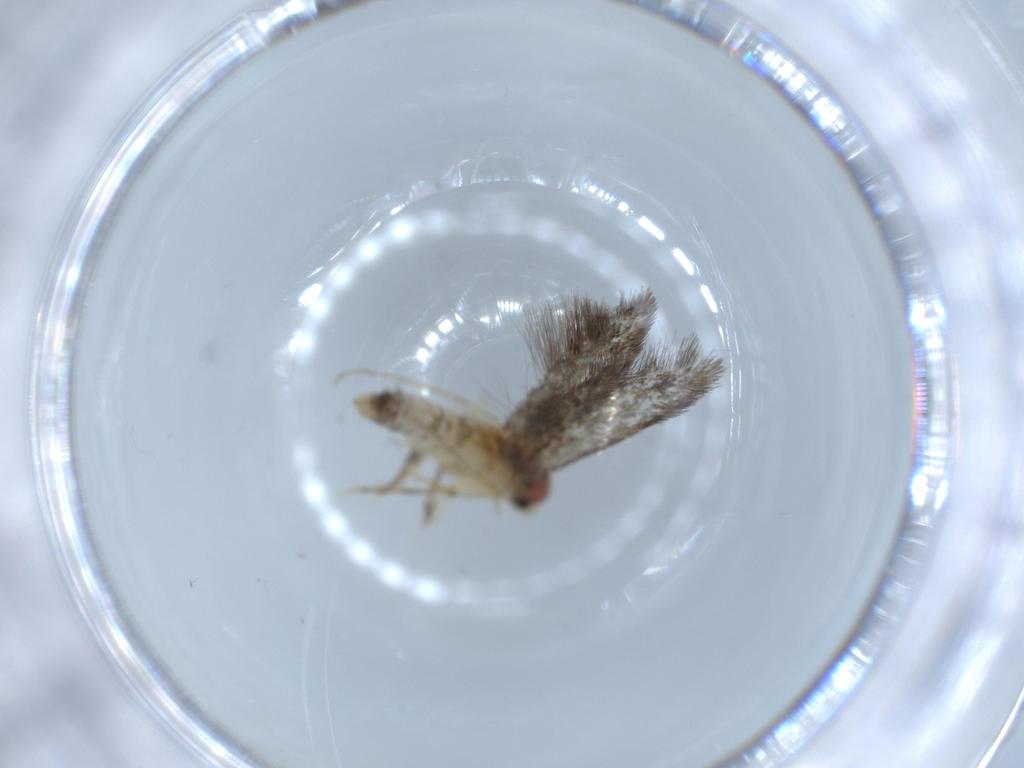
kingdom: Animalia
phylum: Arthropoda
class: Insecta
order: Lepidoptera
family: Tineidae
